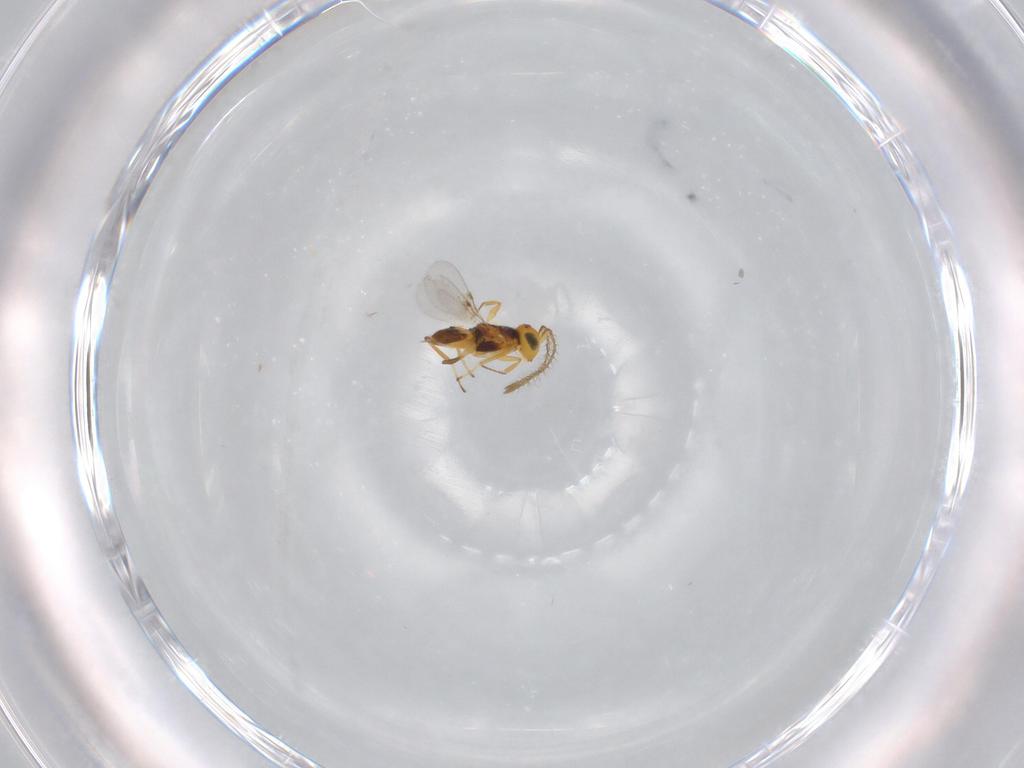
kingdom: Animalia
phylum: Arthropoda
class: Insecta
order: Hymenoptera
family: Encyrtidae
